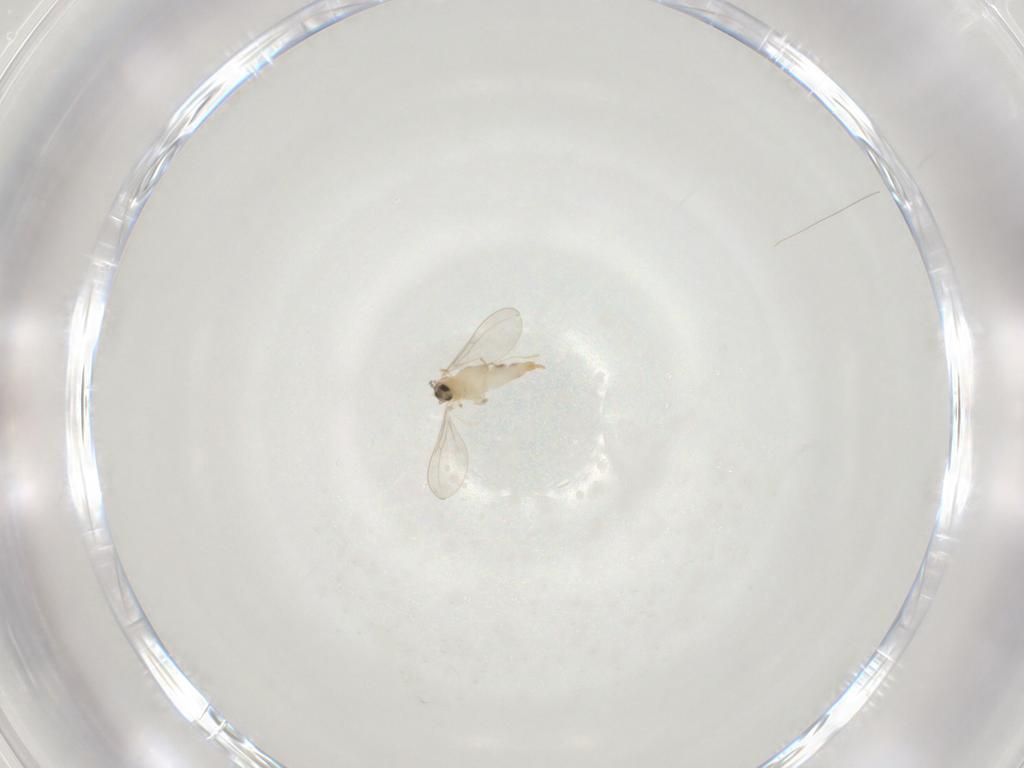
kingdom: Animalia
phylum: Arthropoda
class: Insecta
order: Diptera
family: Cecidomyiidae
